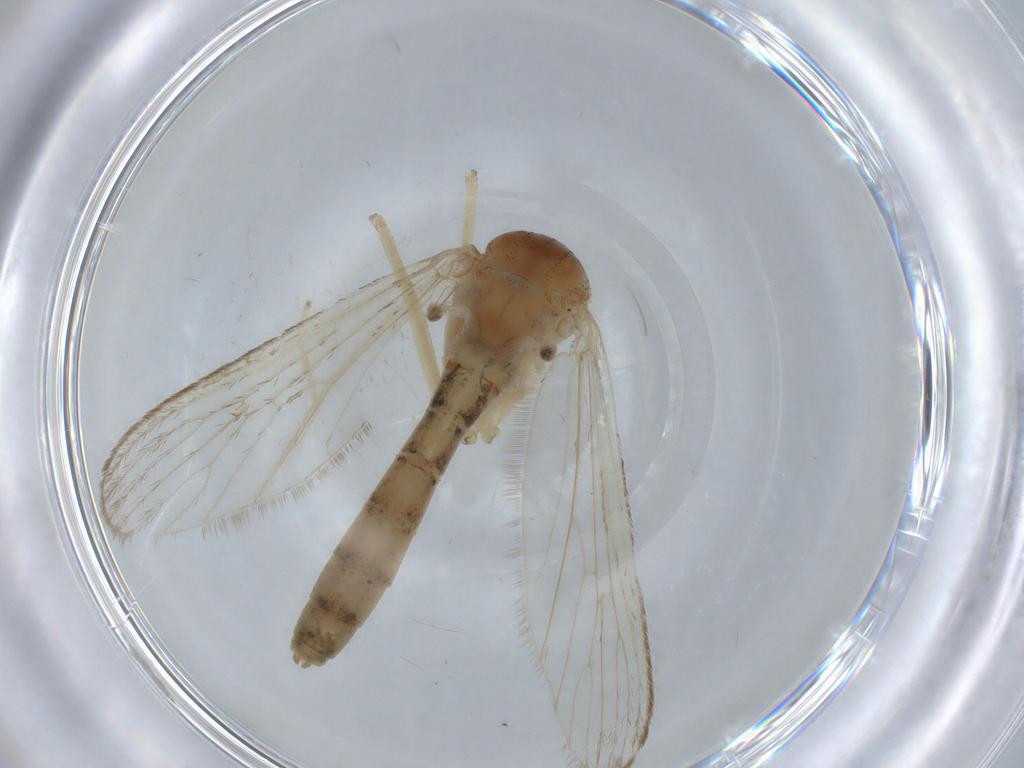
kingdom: Animalia
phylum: Arthropoda
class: Insecta
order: Diptera
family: Culicidae
